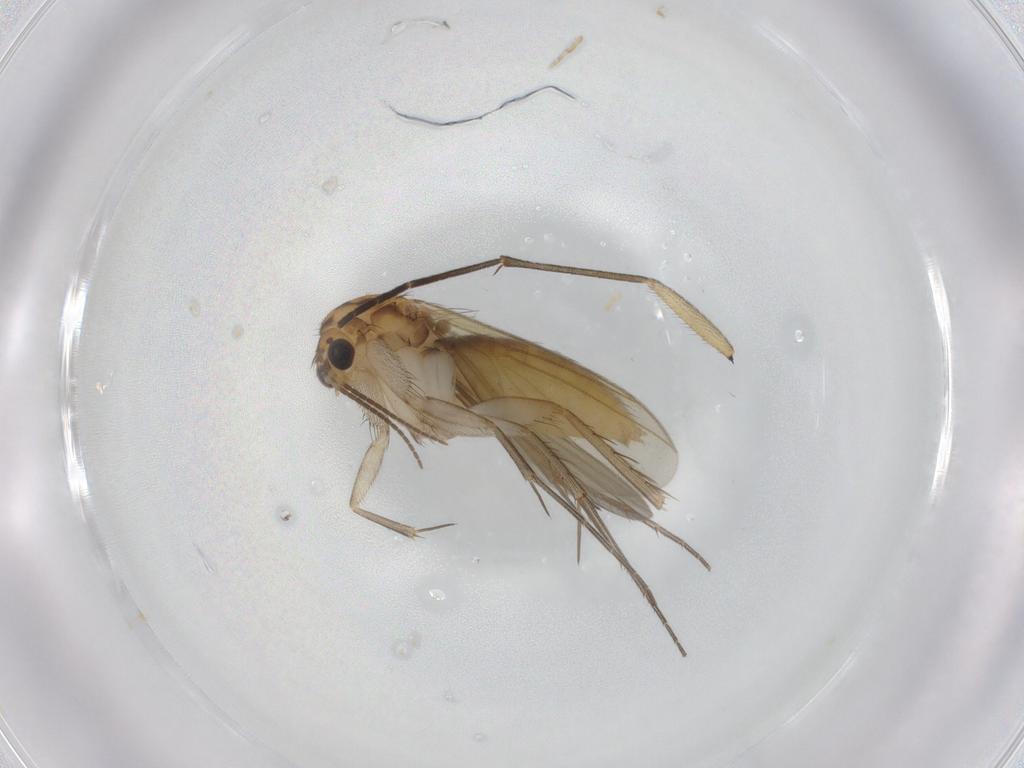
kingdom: Animalia
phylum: Arthropoda
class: Insecta
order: Diptera
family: Mycetophilidae
